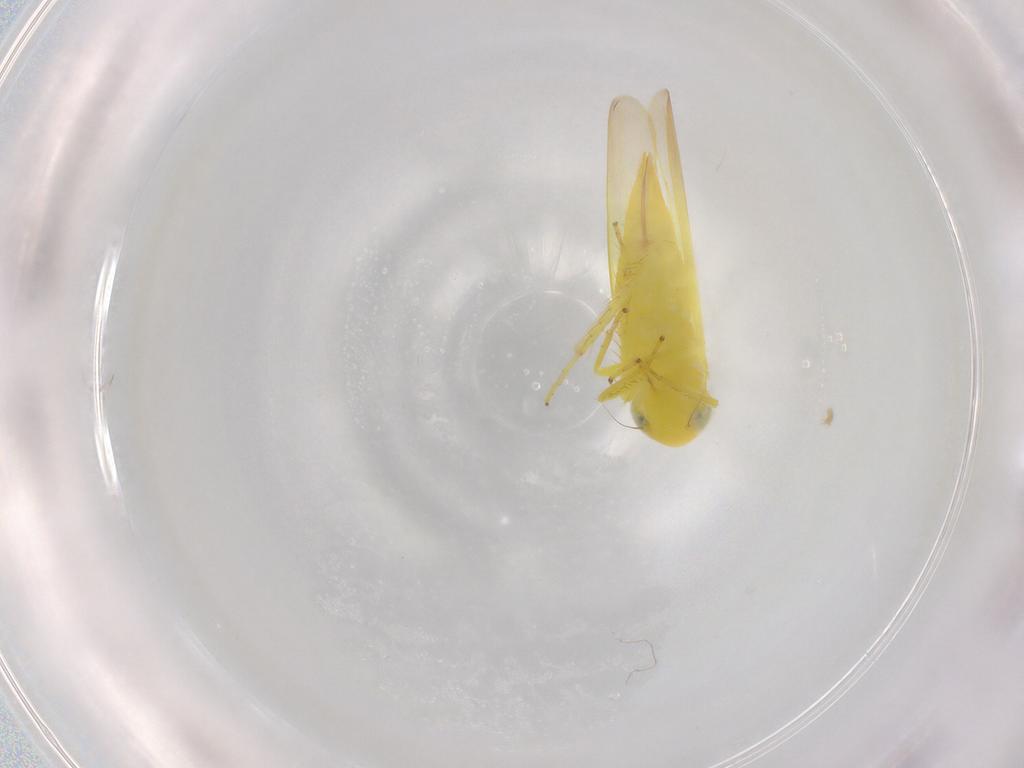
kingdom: Animalia
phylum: Arthropoda
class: Insecta
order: Hemiptera
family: Cicadellidae
